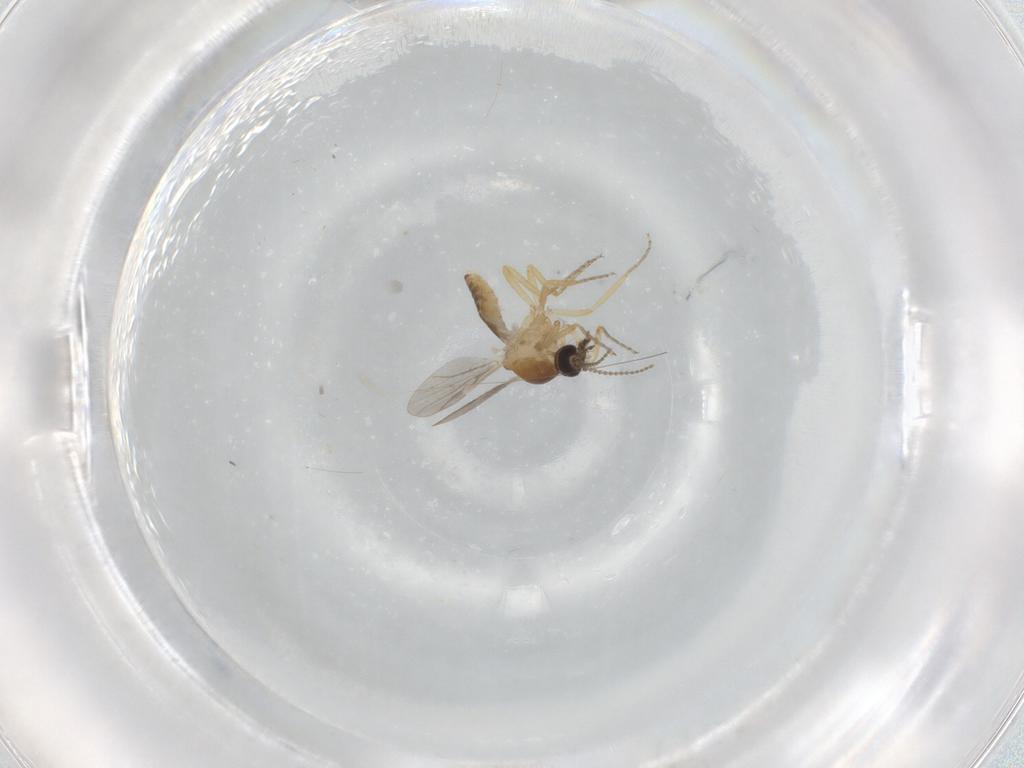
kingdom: Animalia
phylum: Arthropoda
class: Insecta
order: Diptera
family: Ceratopogonidae
